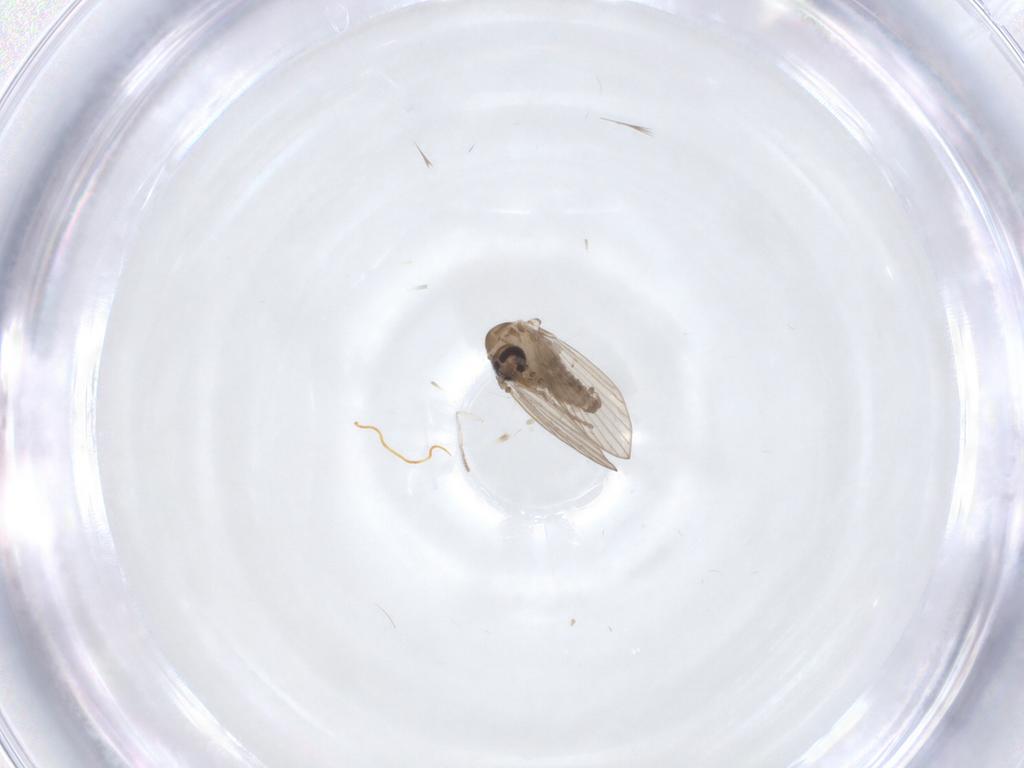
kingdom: Animalia
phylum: Arthropoda
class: Insecta
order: Diptera
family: Psychodidae
